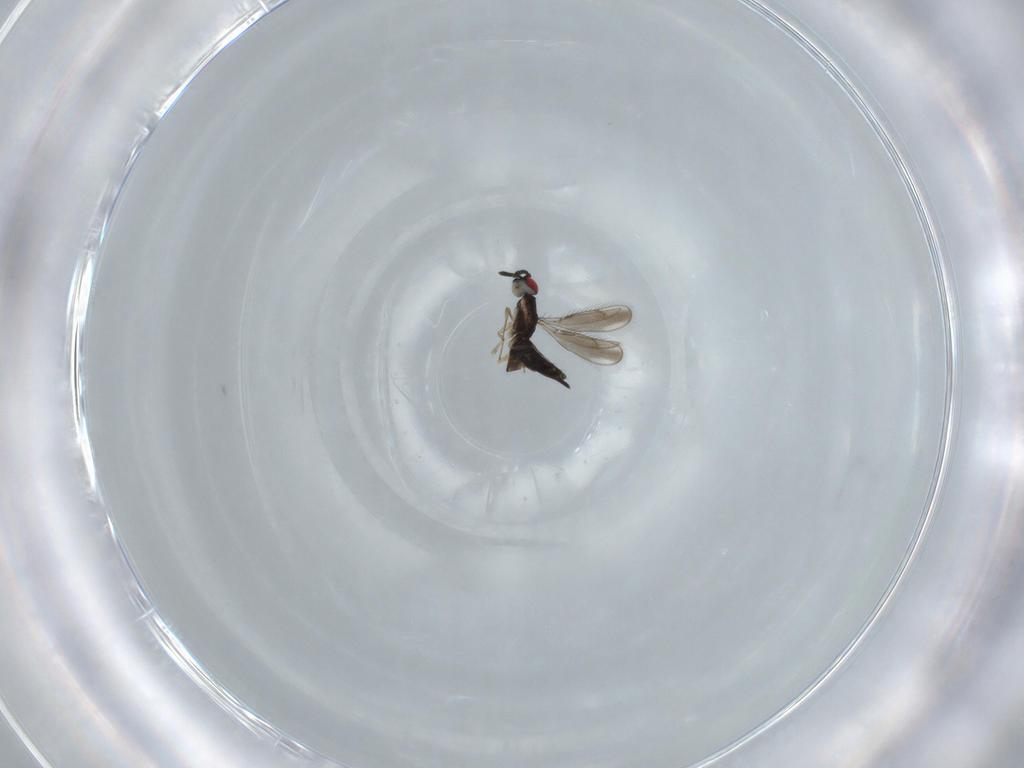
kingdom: Animalia
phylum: Arthropoda
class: Insecta
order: Hymenoptera
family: Pteromalidae
